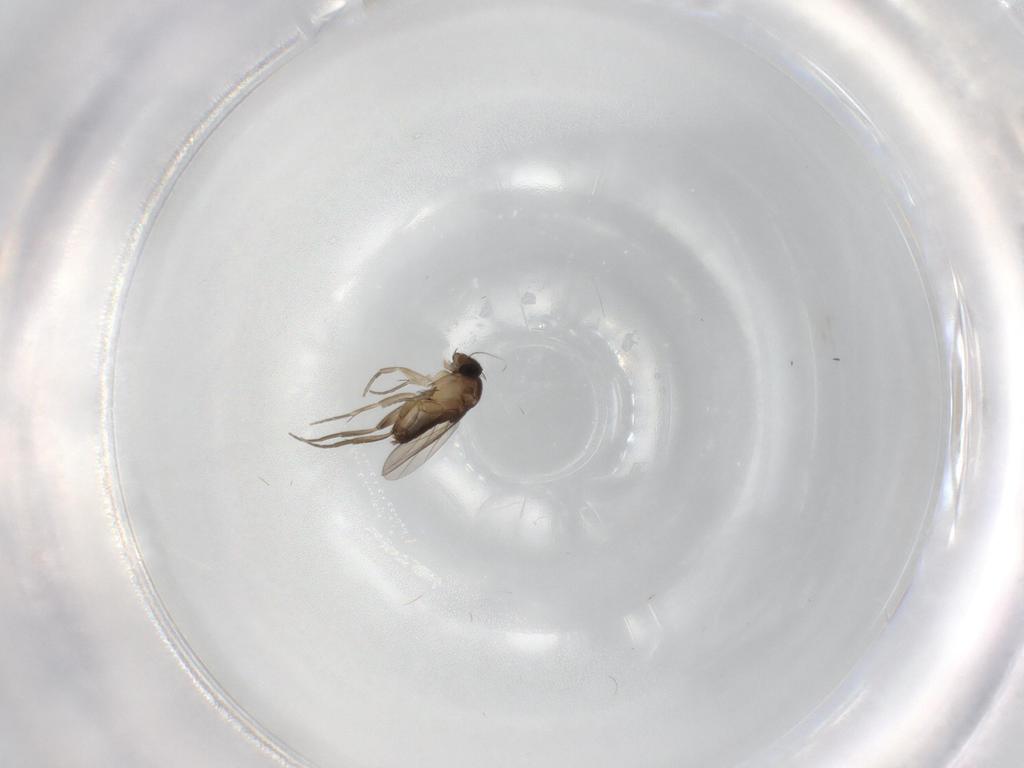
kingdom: Animalia
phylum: Arthropoda
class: Insecta
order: Diptera
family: Phoridae
